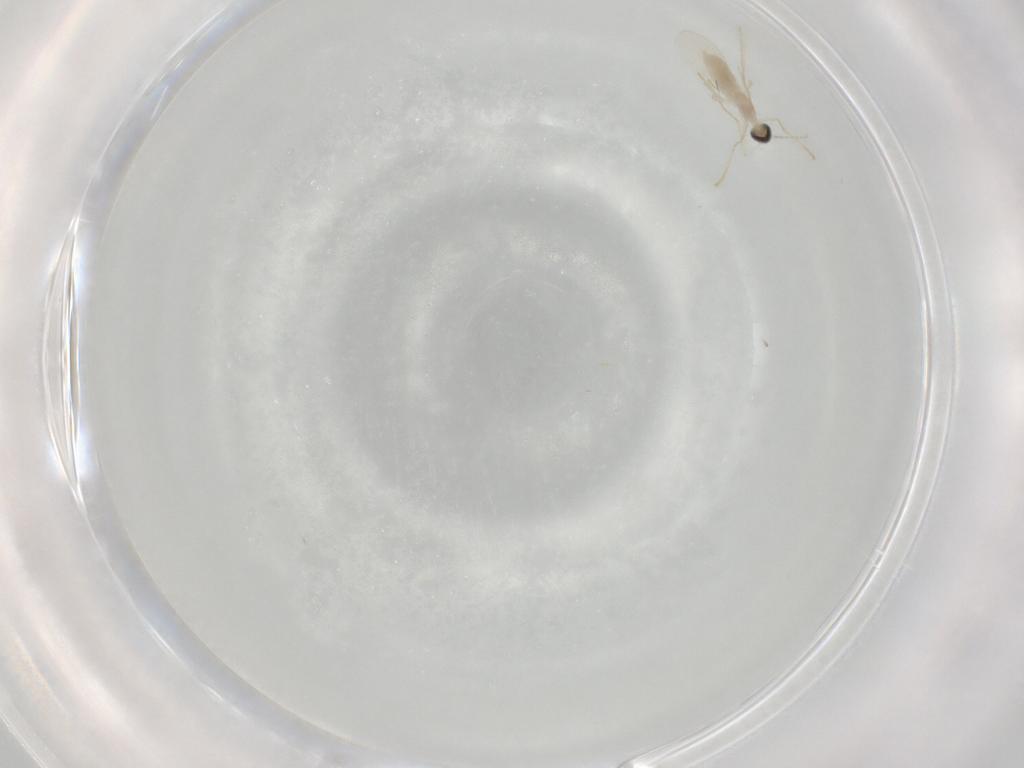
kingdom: Animalia
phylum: Arthropoda
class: Insecta
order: Diptera
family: Cecidomyiidae
